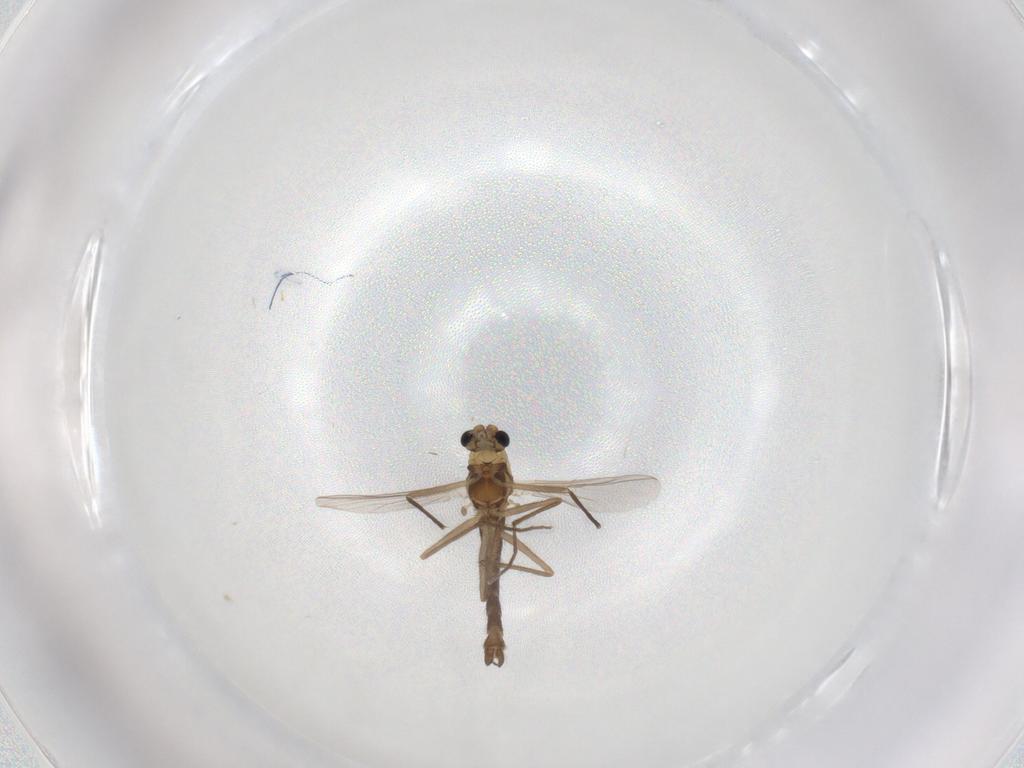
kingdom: Animalia
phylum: Arthropoda
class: Insecta
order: Diptera
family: Chironomidae
